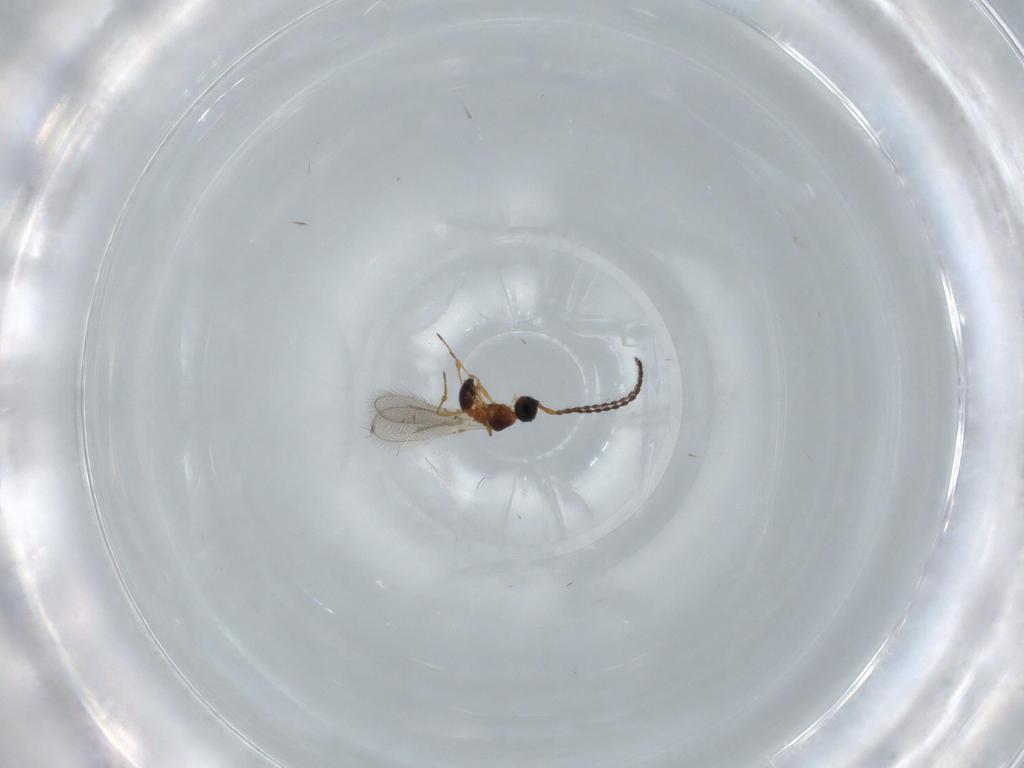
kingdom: Animalia
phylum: Arthropoda
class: Insecta
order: Hymenoptera
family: Diapriidae
